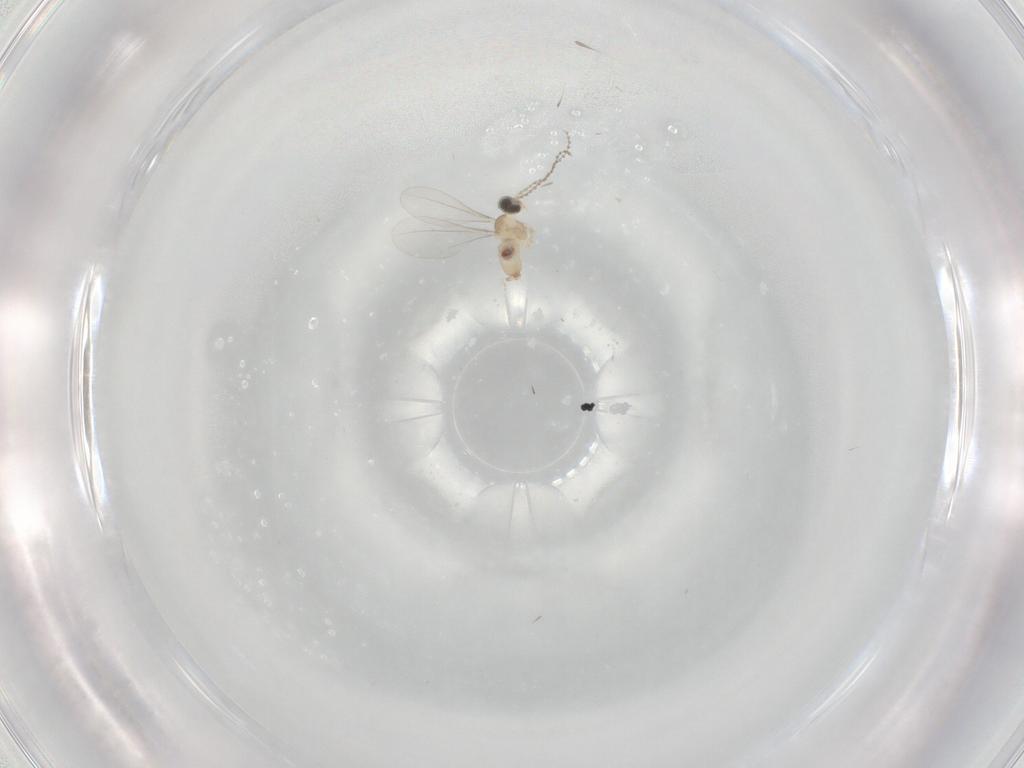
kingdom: Animalia
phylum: Arthropoda
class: Insecta
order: Diptera
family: Cecidomyiidae
